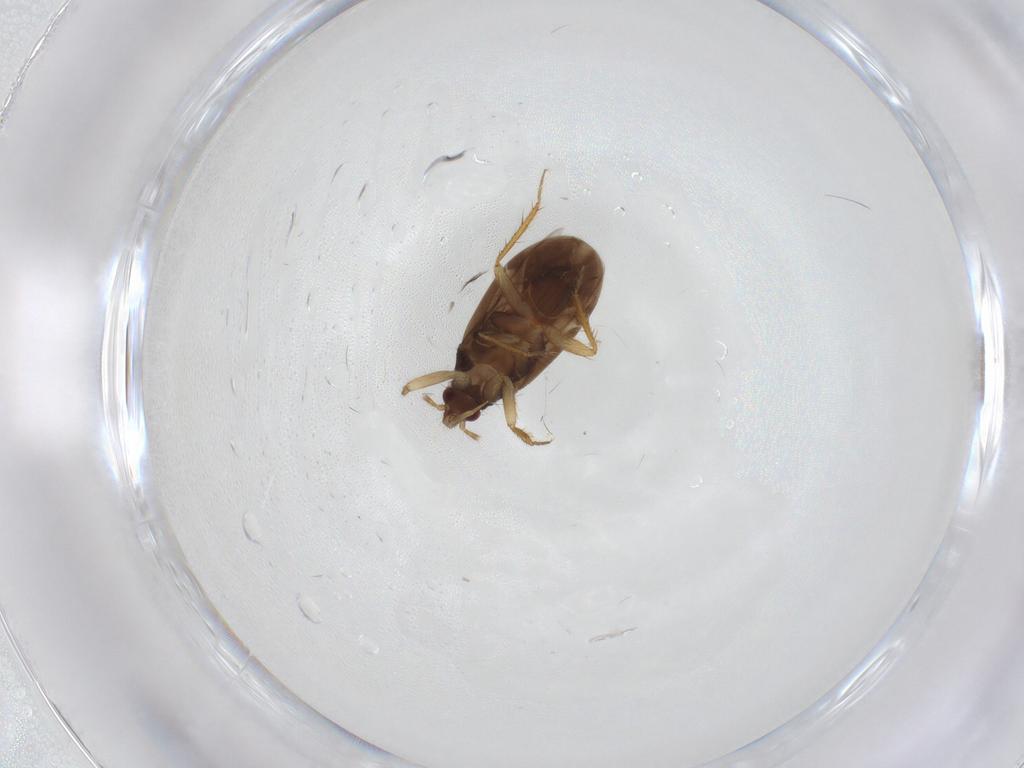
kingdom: Animalia
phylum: Arthropoda
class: Insecta
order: Hemiptera
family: Ceratocombidae
